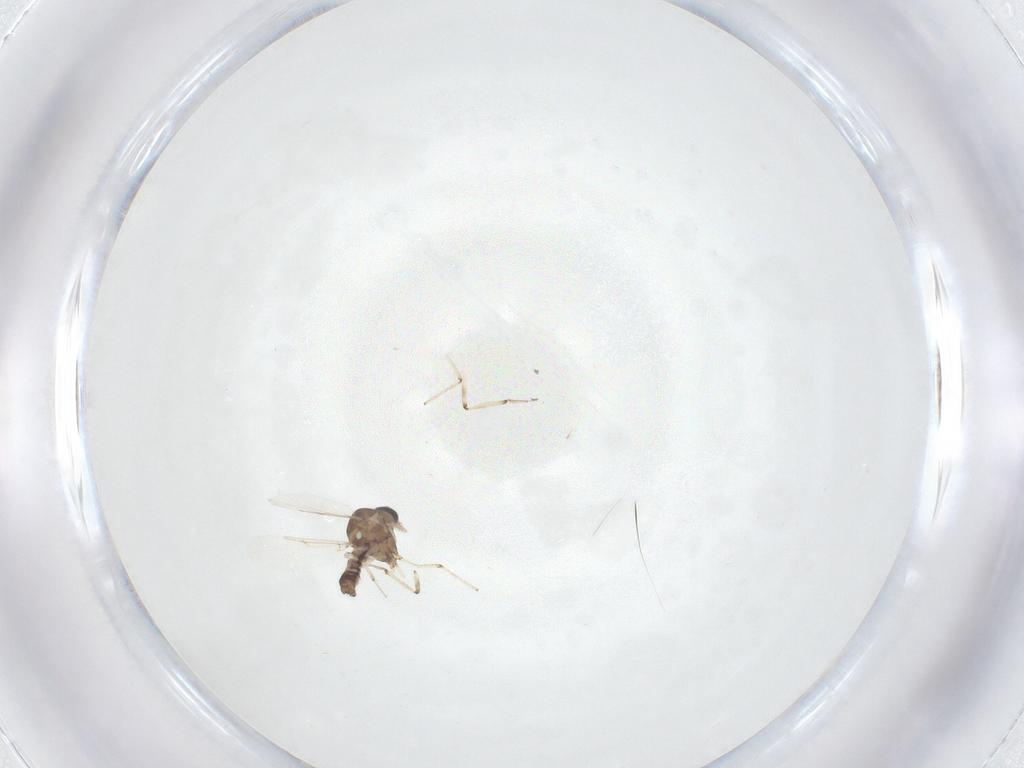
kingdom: Animalia
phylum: Arthropoda
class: Insecta
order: Diptera
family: Ceratopogonidae
